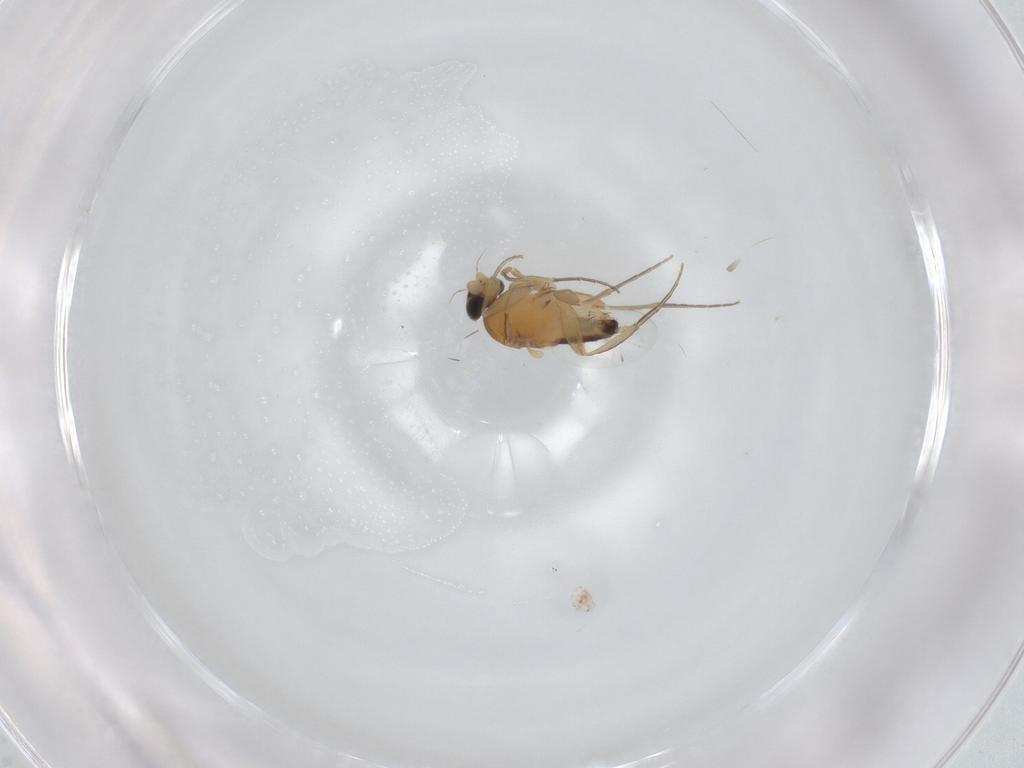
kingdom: Animalia
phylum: Arthropoda
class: Insecta
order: Diptera
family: Phoridae
